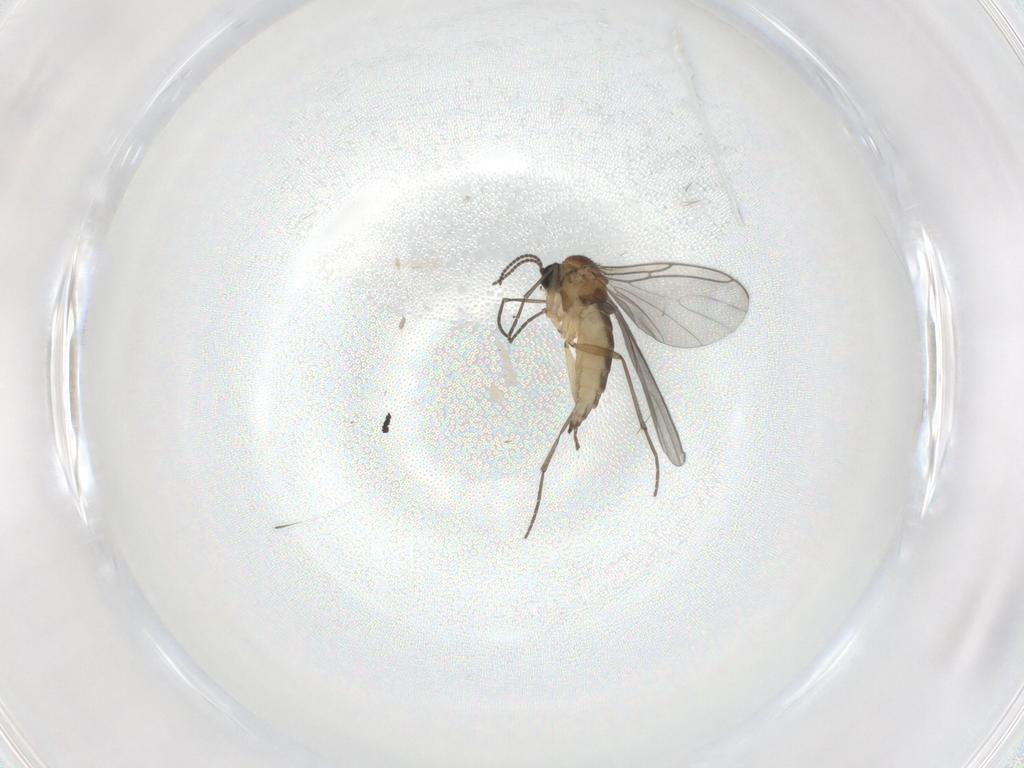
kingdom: Animalia
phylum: Arthropoda
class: Insecta
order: Diptera
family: Sciaridae
